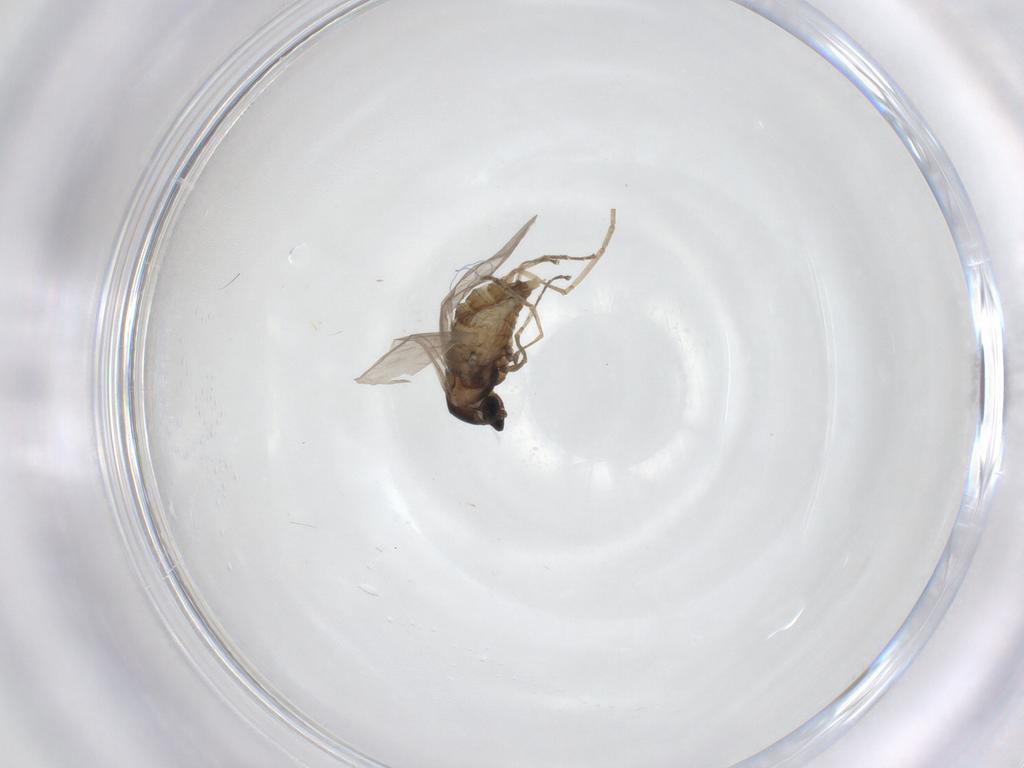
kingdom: Animalia
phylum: Arthropoda
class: Insecta
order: Diptera
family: Cecidomyiidae
